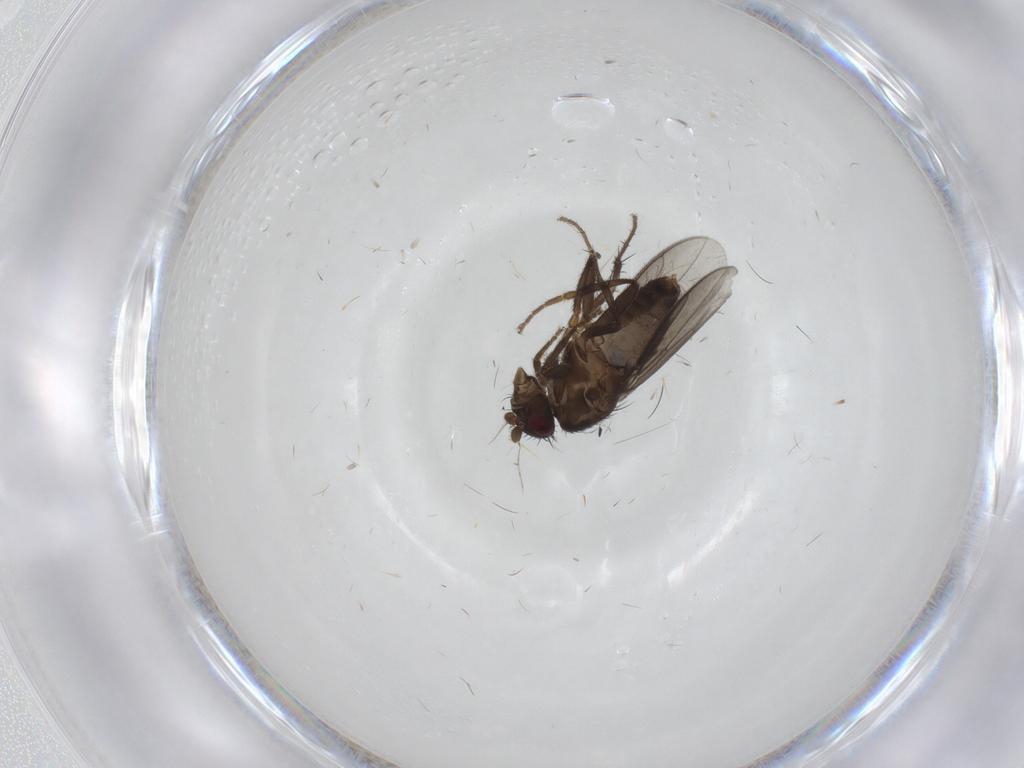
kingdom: Animalia
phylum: Arthropoda
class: Insecta
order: Diptera
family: Sphaeroceridae
